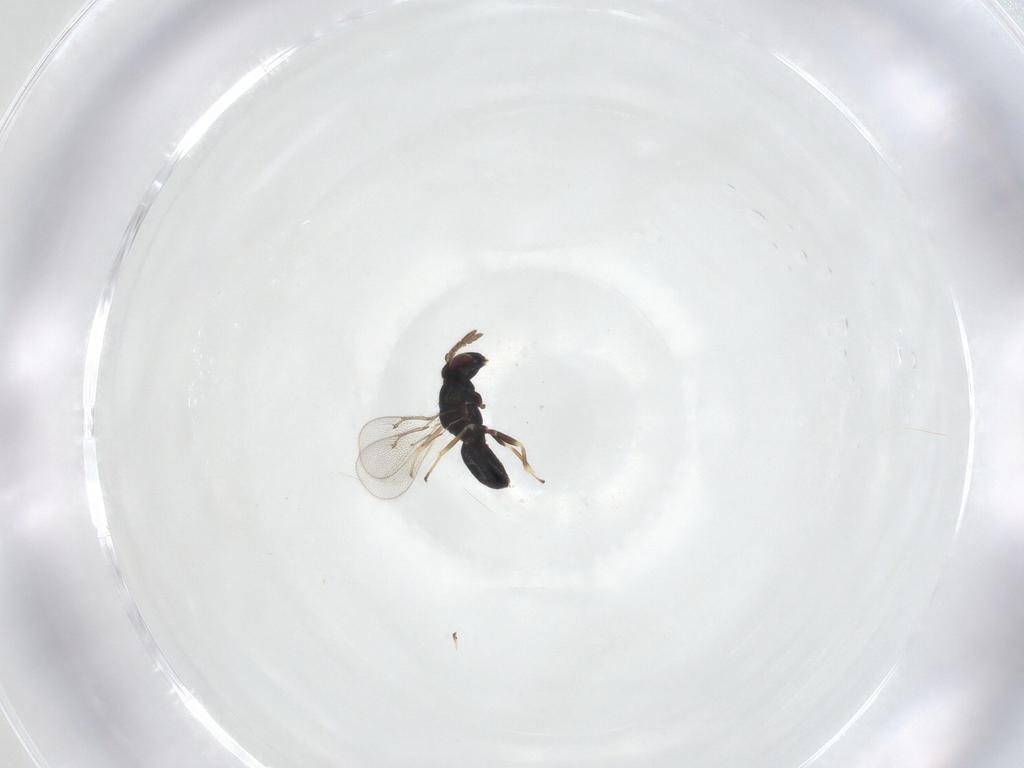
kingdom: Animalia
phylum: Arthropoda
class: Insecta
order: Hymenoptera
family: Eulophidae
